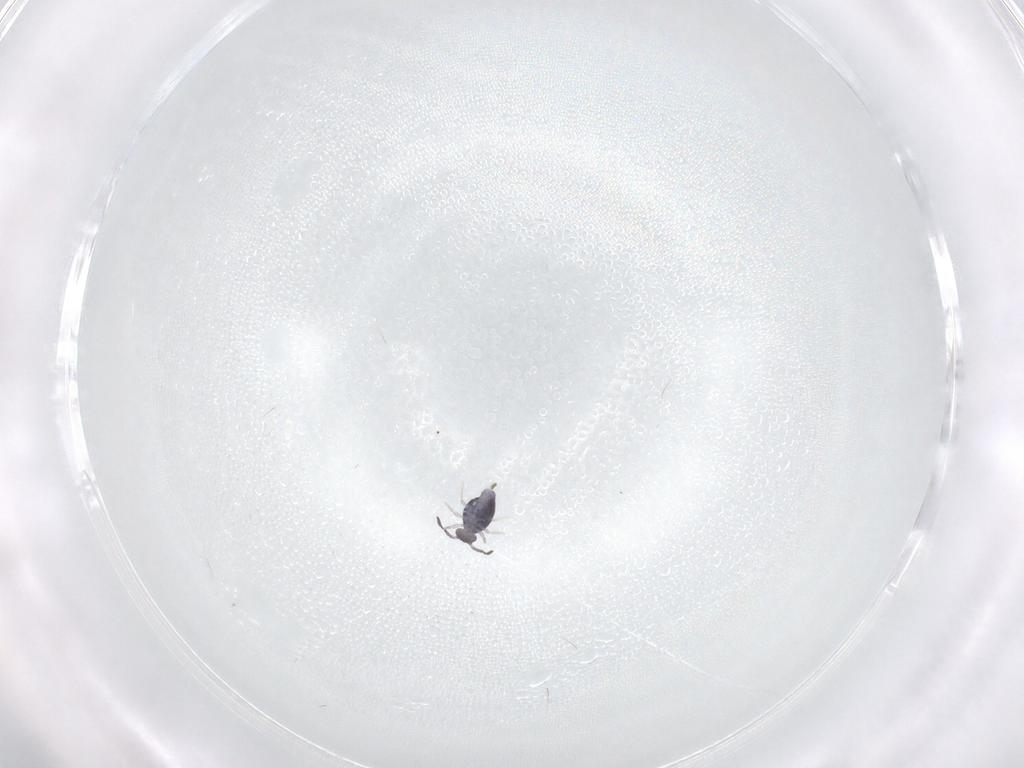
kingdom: Animalia
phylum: Arthropoda
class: Collembola
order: Symphypleona
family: Katiannidae
